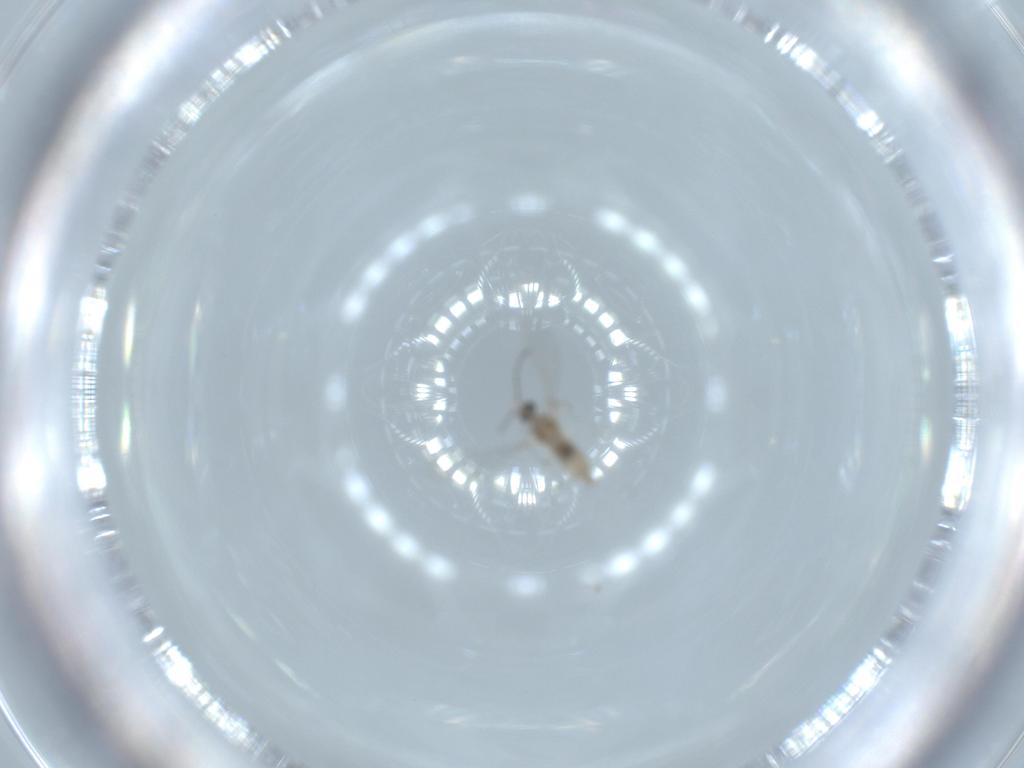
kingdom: Animalia
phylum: Arthropoda
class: Insecta
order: Diptera
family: Cecidomyiidae
